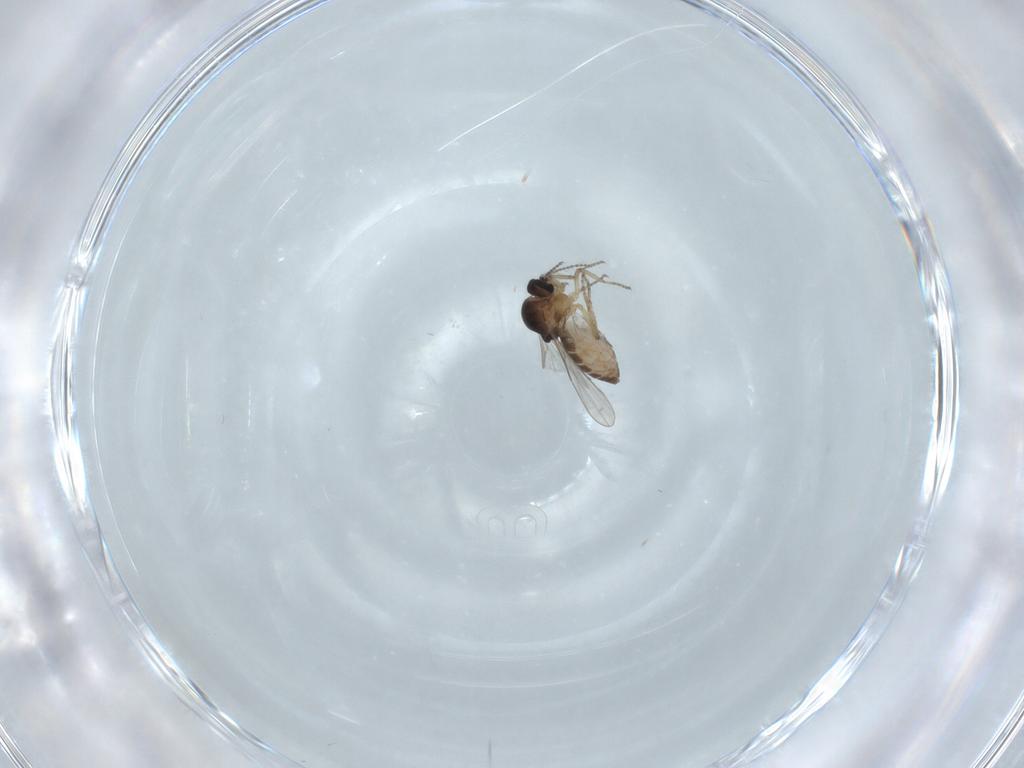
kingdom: Animalia
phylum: Arthropoda
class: Insecta
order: Diptera
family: Ceratopogonidae
